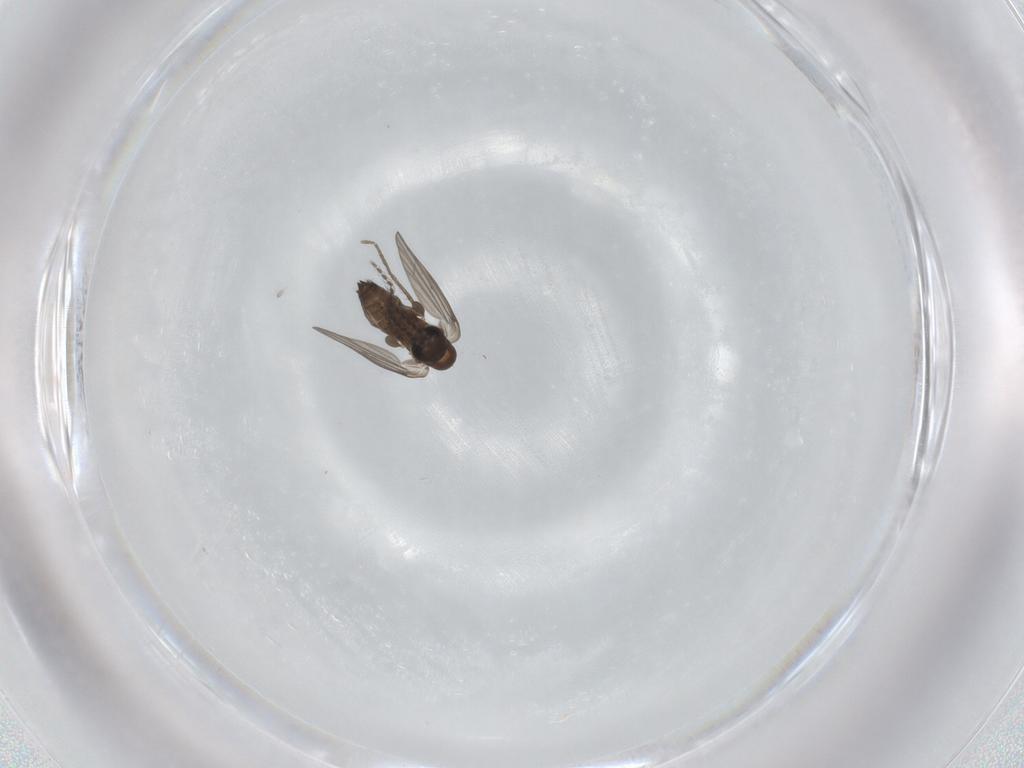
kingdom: Animalia
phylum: Arthropoda
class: Insecta
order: Diptera
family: Psychodidae
